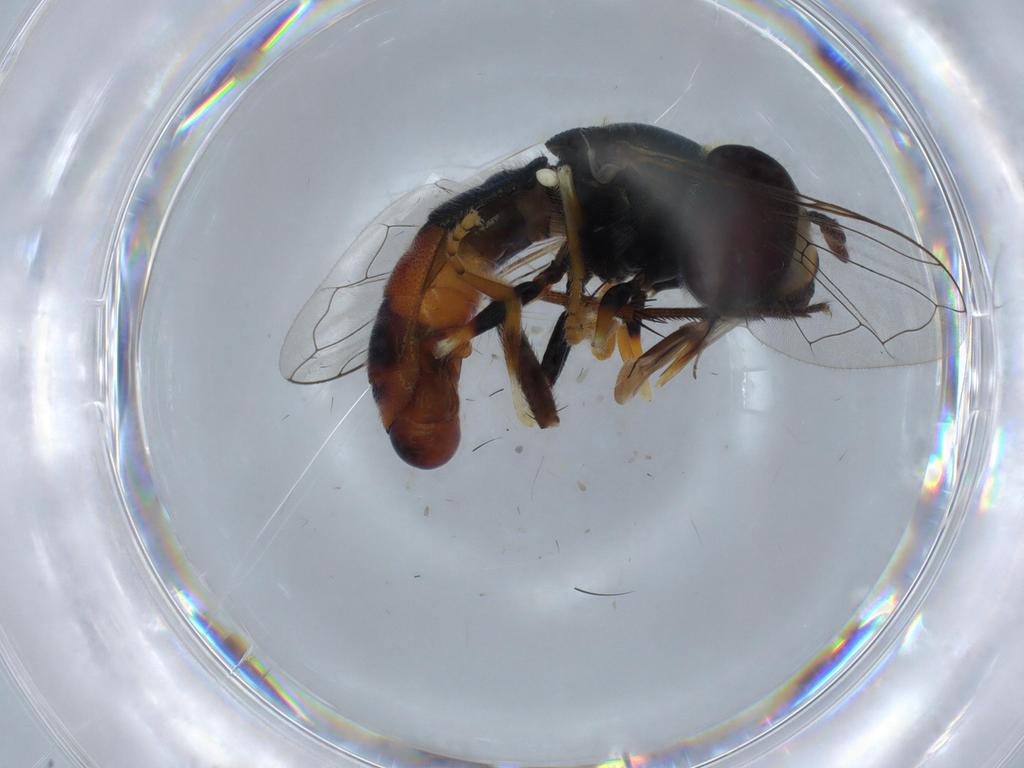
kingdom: Animalia
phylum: Arthropoda
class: Insecta
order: Diptera
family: Syrphidae
